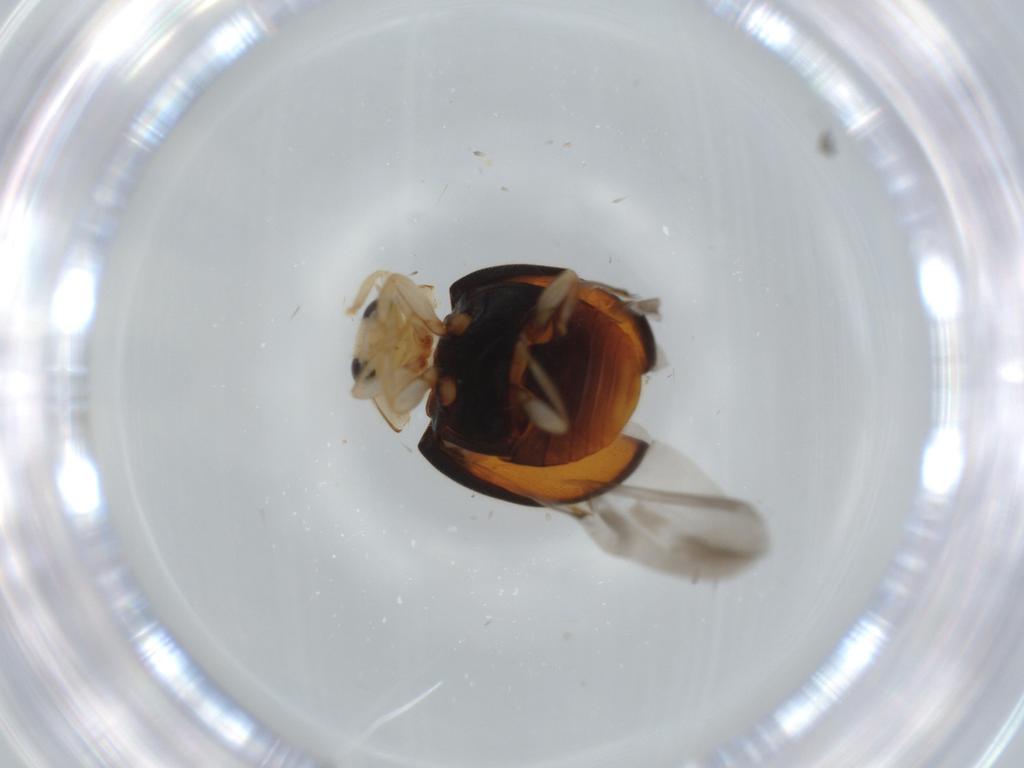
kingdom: Animalia
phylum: Arthropoda
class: Insecta
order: Coleoptera
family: Coccinellidae
